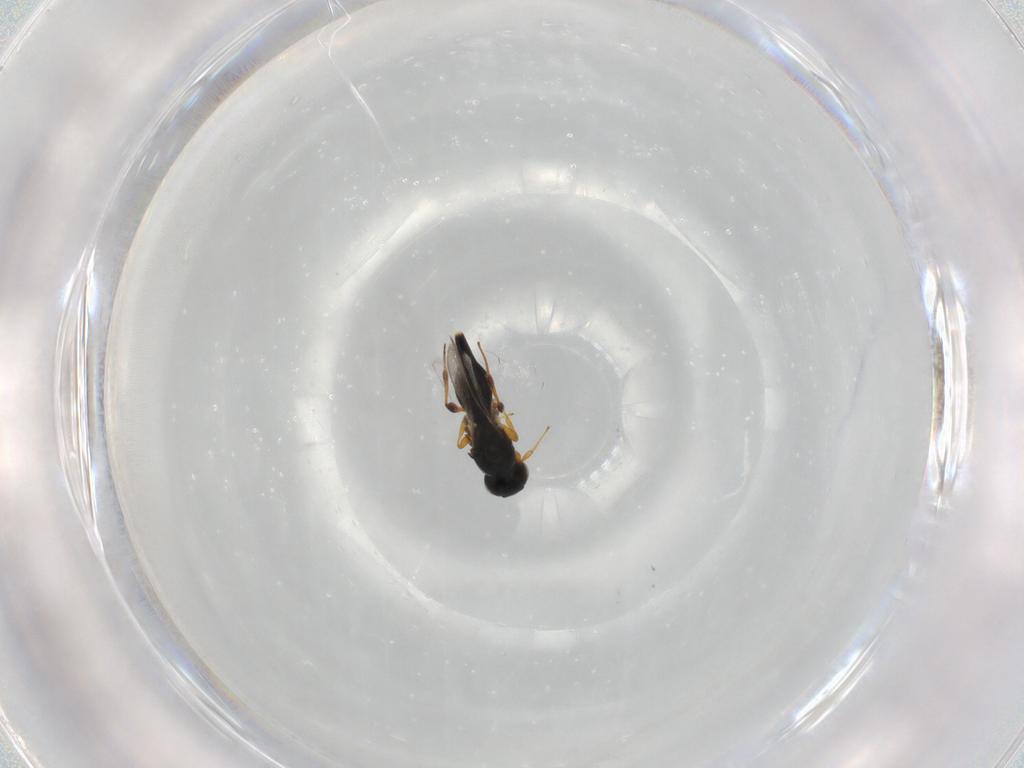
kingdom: Animalia
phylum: Arthropoda
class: Insecta
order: Hymenoptera
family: Platygastridae
